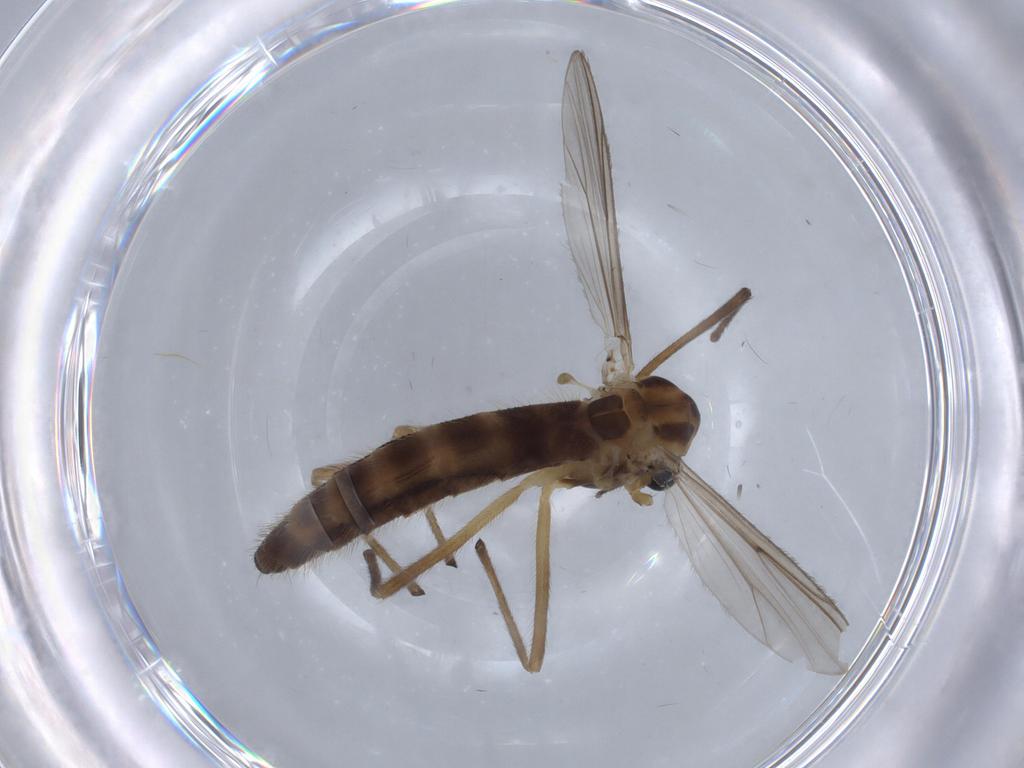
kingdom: Animalia
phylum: Arthropoda
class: Insecta
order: Diptera
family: Chironomidae
